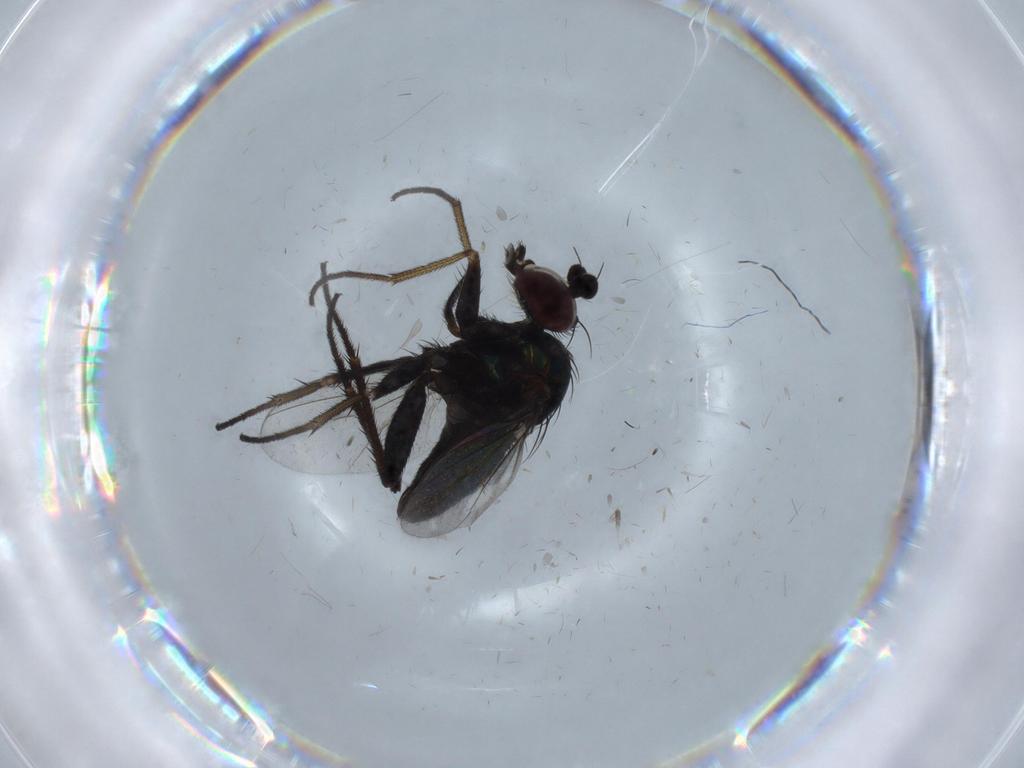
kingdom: Animalia
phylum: Arthropoda
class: Insecta
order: Diptera
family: Dolichopodidae
